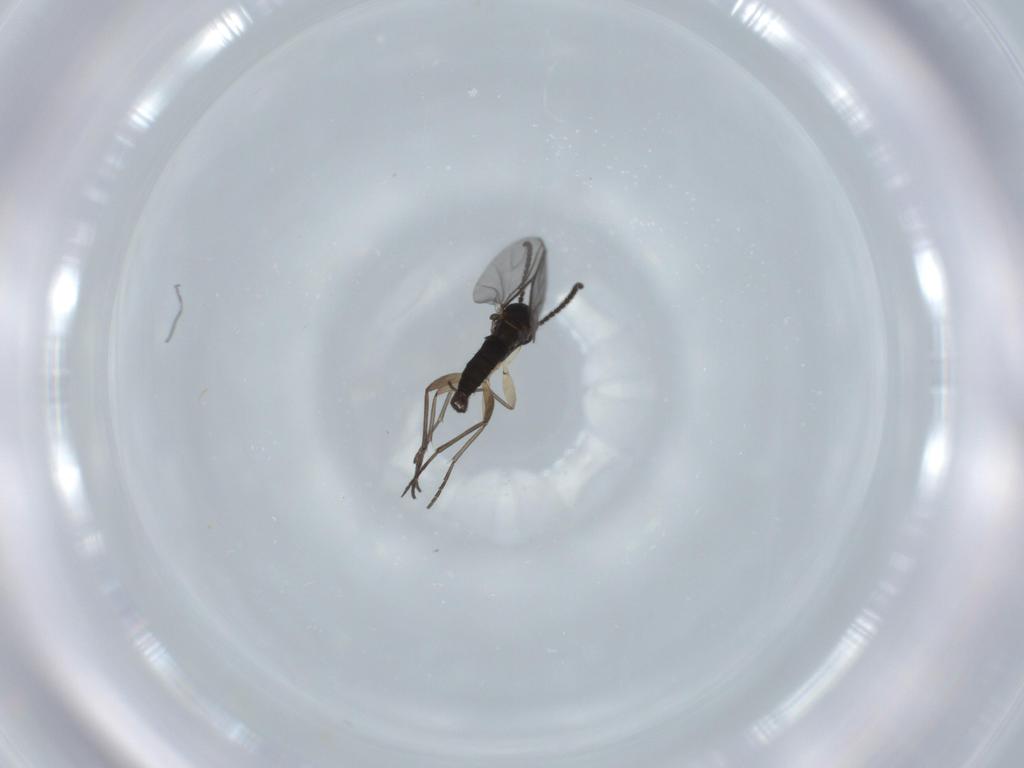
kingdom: Animalia
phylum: Arthropoda
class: Insecta
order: Diptera
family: Sciaridae
